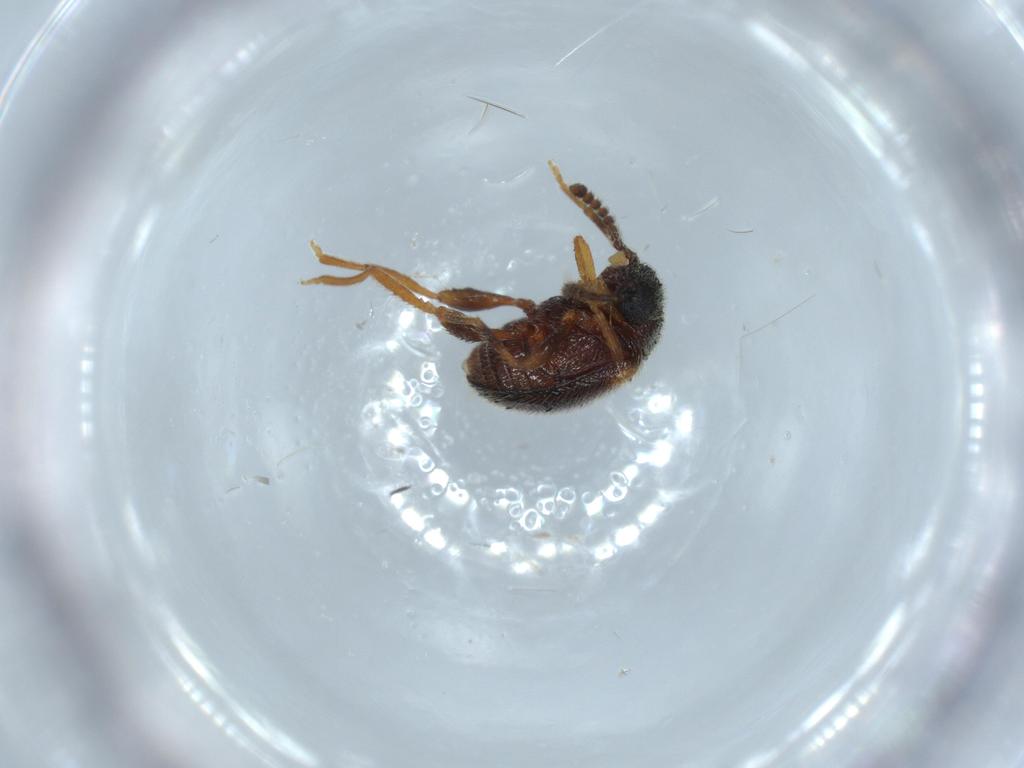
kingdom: Animalia
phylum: Arthropoda
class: Insecta
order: Coleoptera
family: Aderidae
